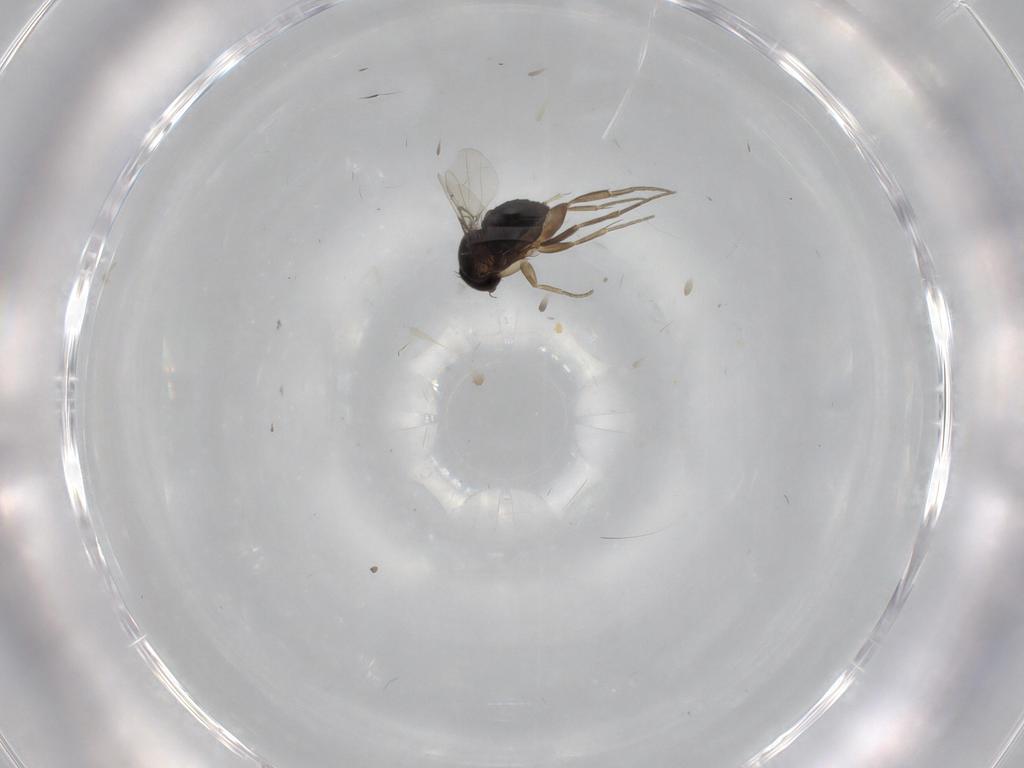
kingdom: Animalia
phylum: Arthropoda
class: Insecta
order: Diptera
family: Phoridae
